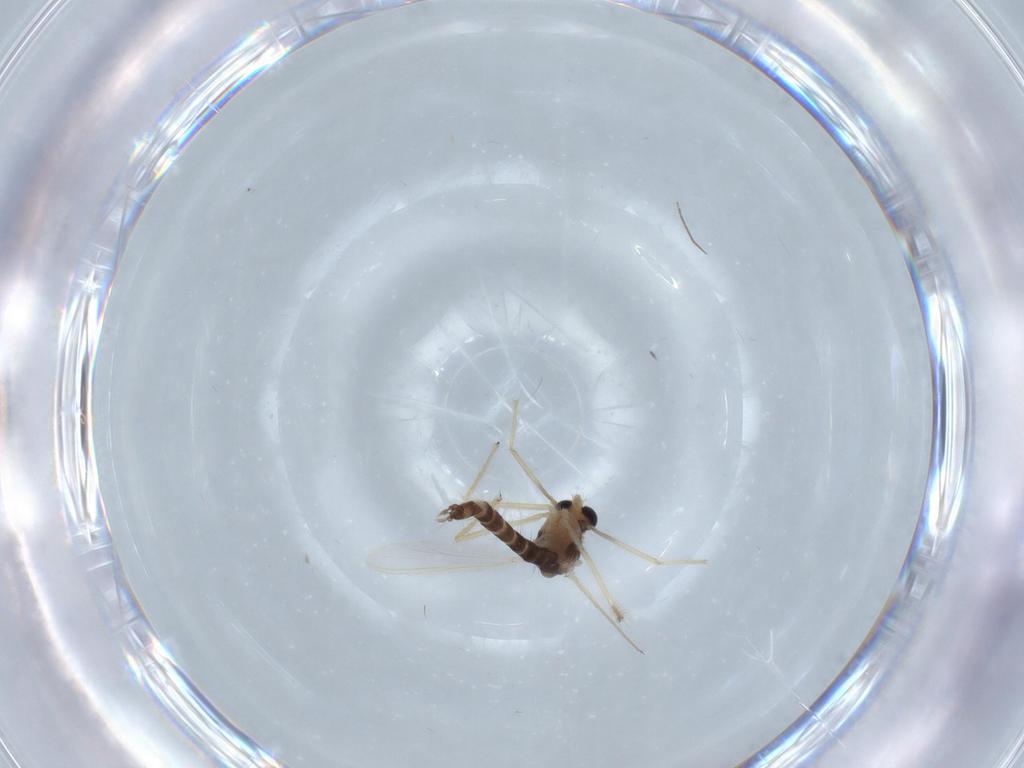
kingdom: Animalia
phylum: Arthropoda
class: Insecta
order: Diptera
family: Chironomidae
